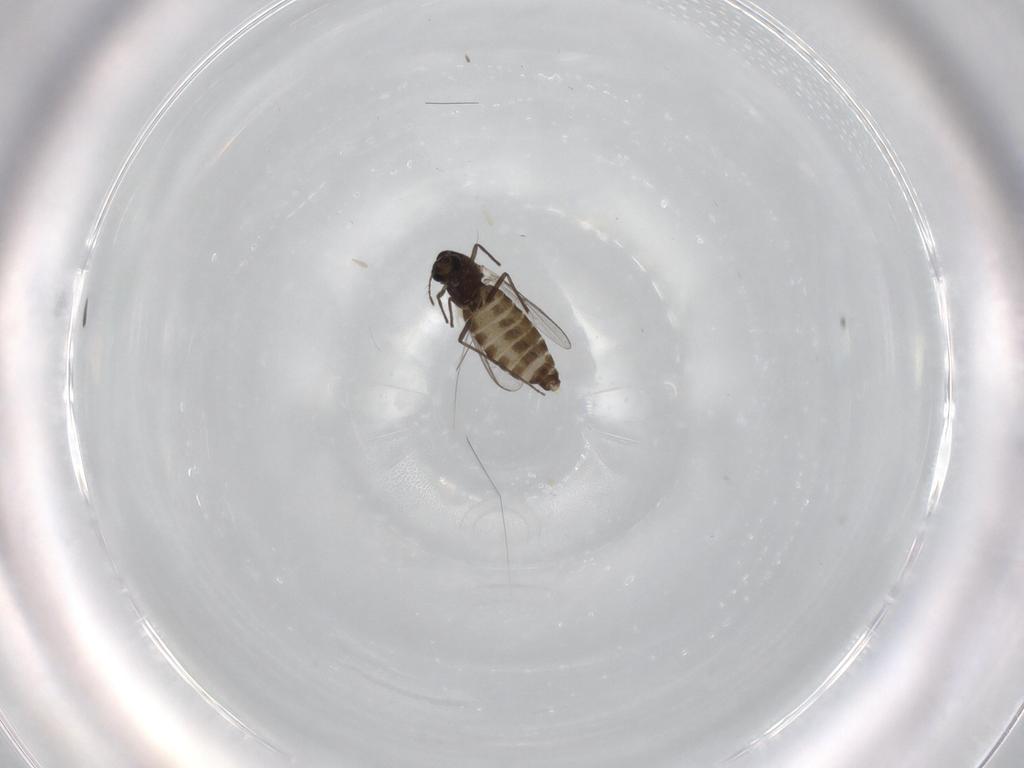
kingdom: Animalia
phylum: Arthropoda
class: Insecta
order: Diptera
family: Chironomidae
